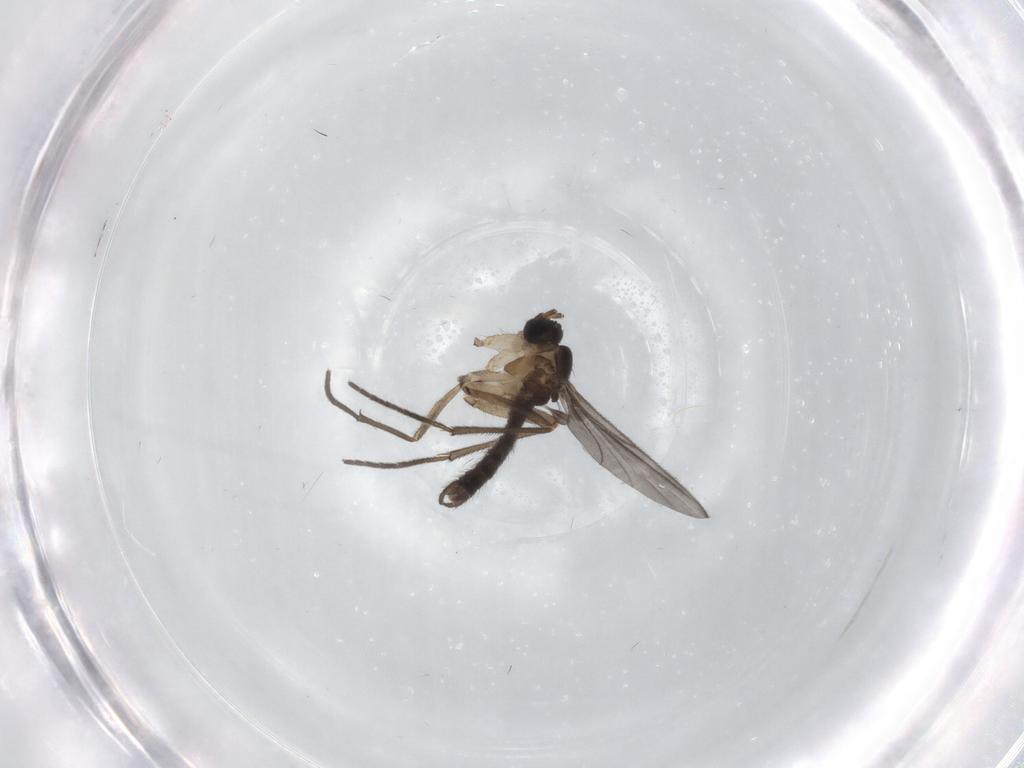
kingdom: Animalia
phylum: Arthropoda
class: Insecta
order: Diptera
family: Sciaridae
